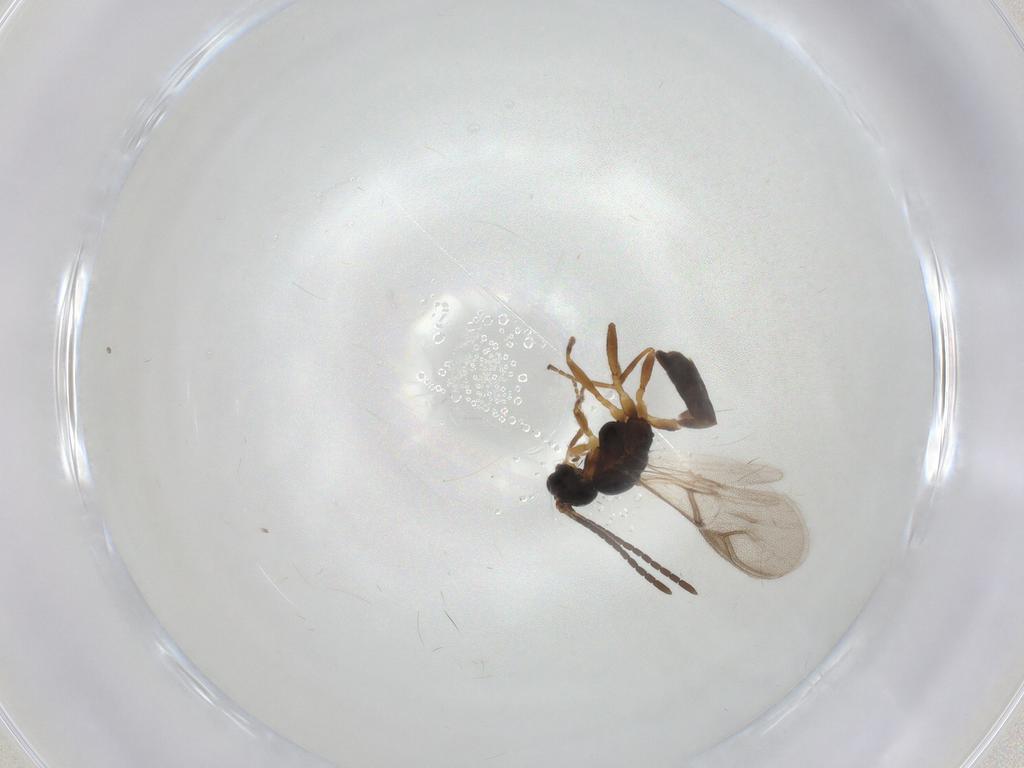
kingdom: Animalia
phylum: Arthropoda
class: Insecta
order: Hymenoptera
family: Braconidae
